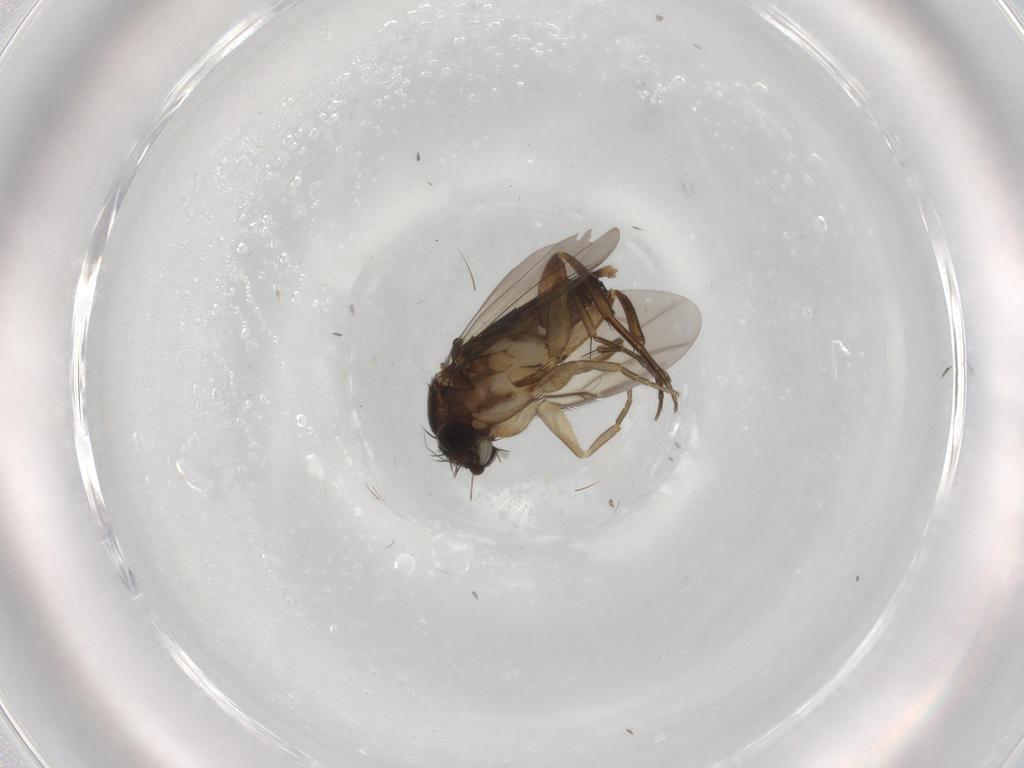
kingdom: Animalia
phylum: Arthropoda
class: Insecta
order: Diptera
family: Phoridae
